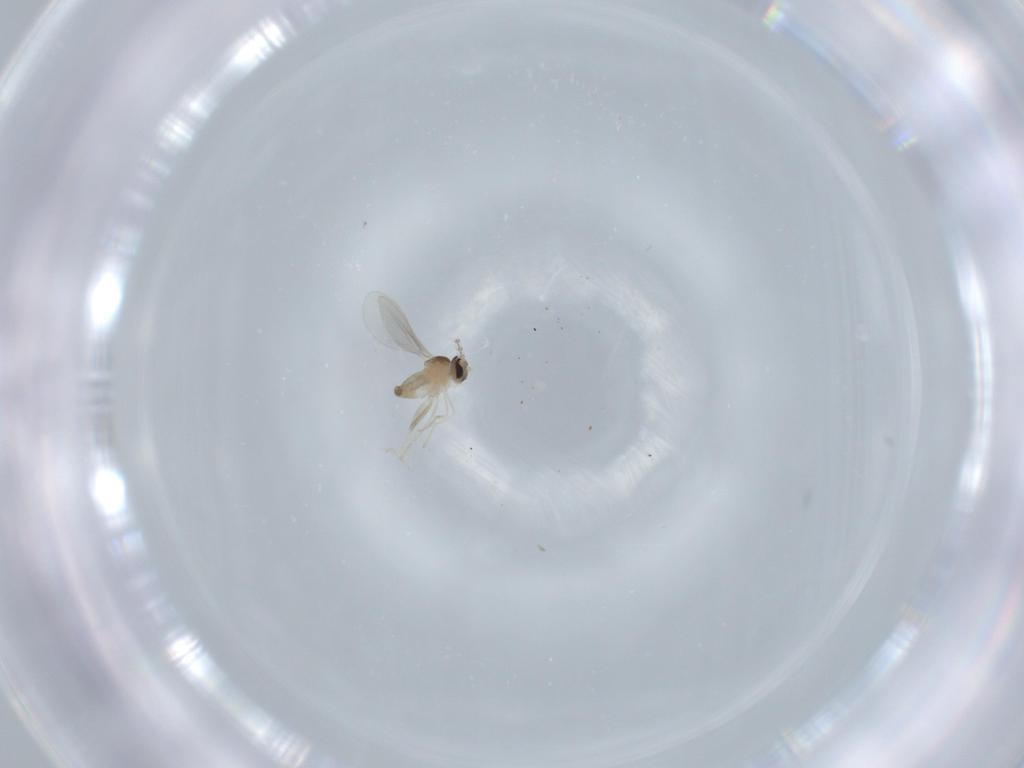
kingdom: Animalia
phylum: Arthropoda
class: Insecta
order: Diptera
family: Cecidomyiidae
